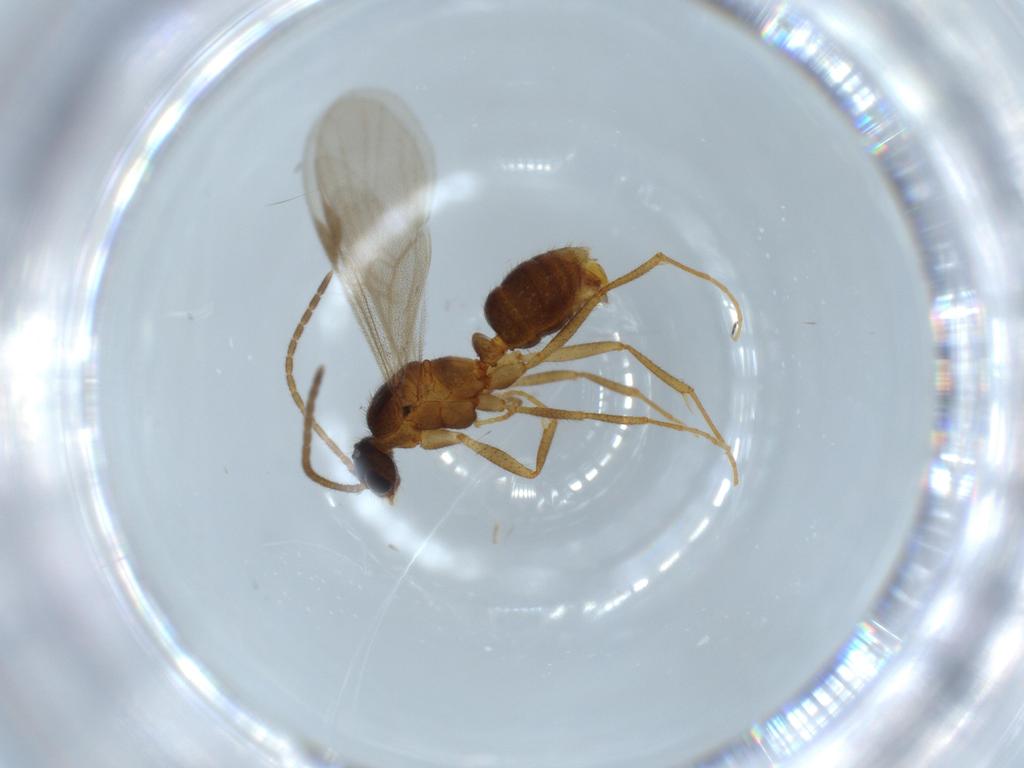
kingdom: Animalia
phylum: Arthropoda
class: Insecta
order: Hymenoptera
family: Formicidae
